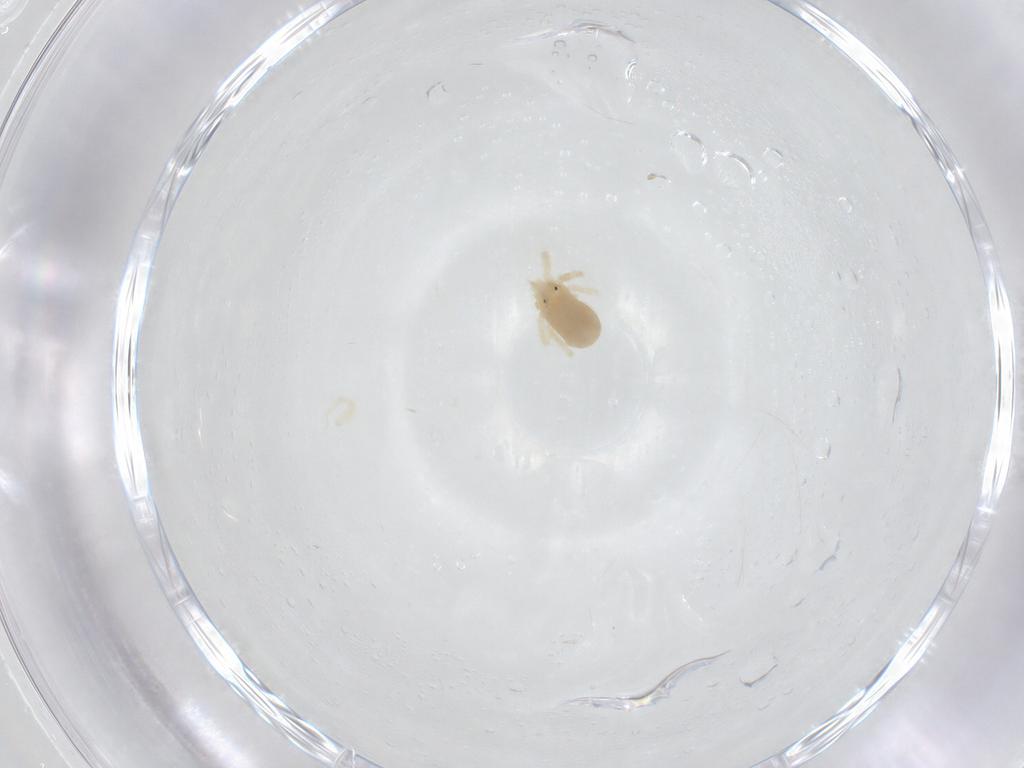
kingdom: Animalia
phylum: Arthropoda
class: Arachnida
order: Trombidiformes
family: Anystidae
